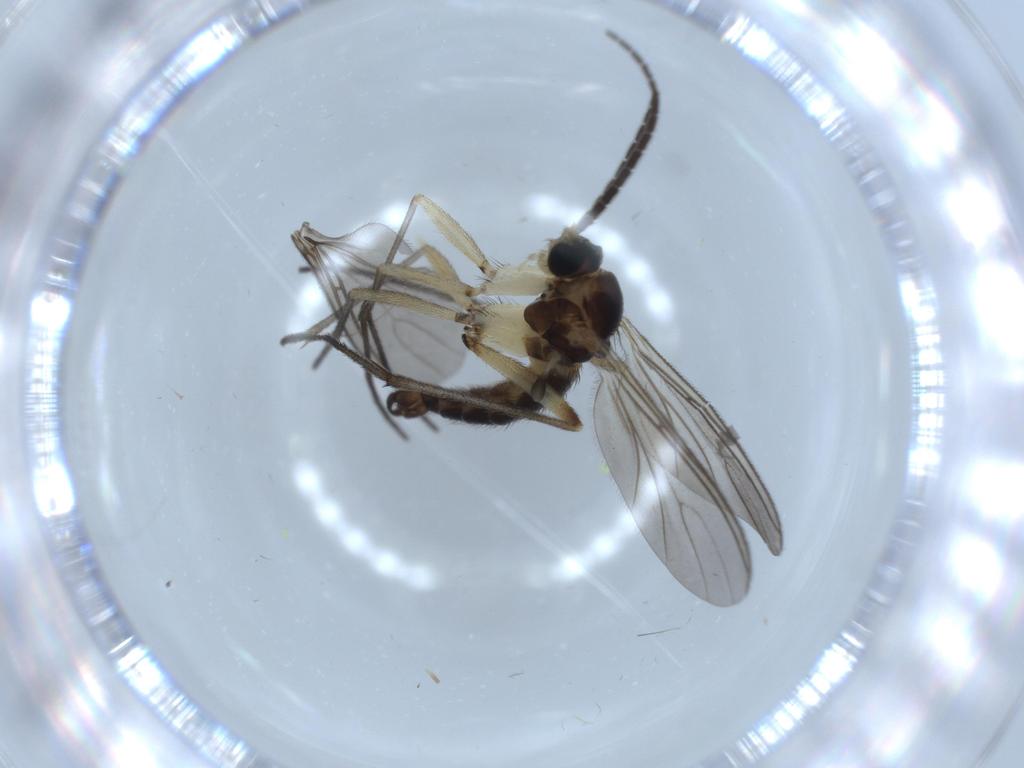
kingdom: Animalia
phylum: Arthropoda
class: Insecta
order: Diptera
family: Sciaridae
